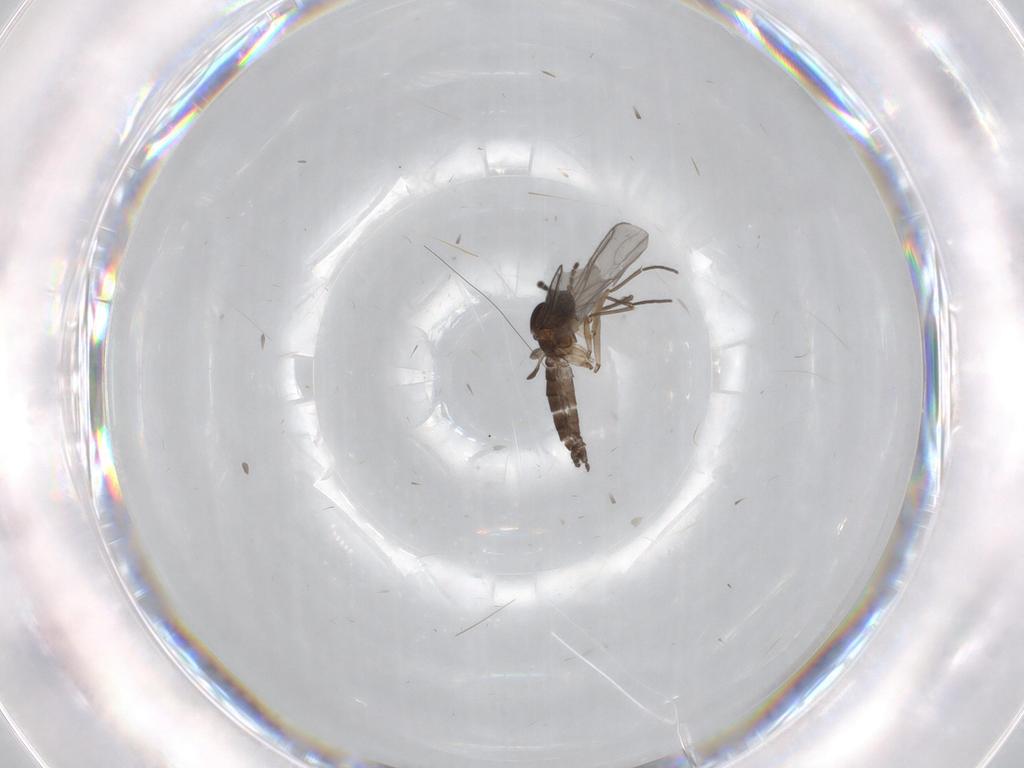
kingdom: Animalia
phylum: Arthropoda
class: Insecta
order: Diptera
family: Sciaridae
